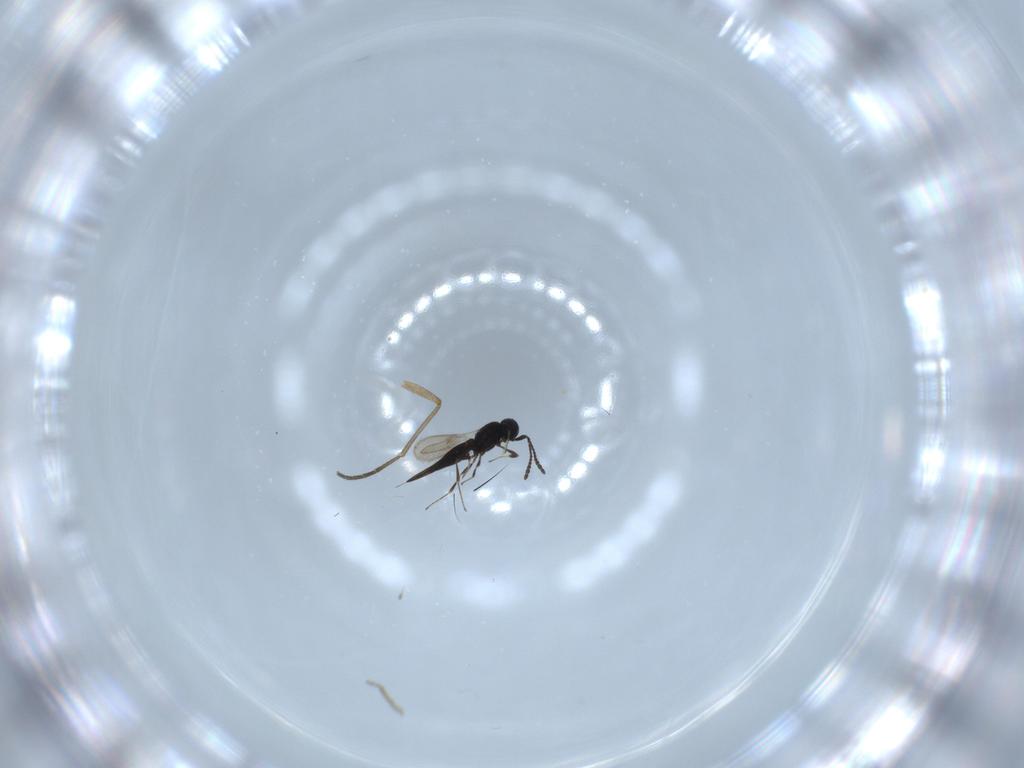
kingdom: Animalia
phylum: Arthropoda
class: Insecta
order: Hymenoptera
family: Scelionidae
